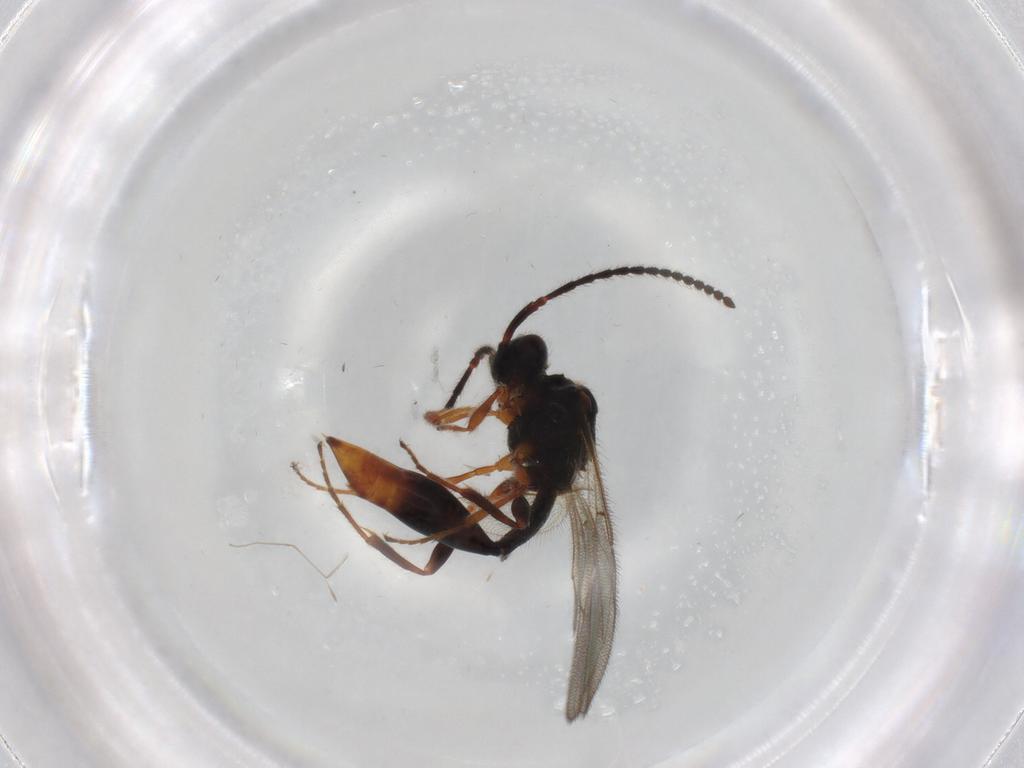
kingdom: Animalia
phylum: Arthropoda
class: Insecta
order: Hymenoptera
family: Diapriidae
